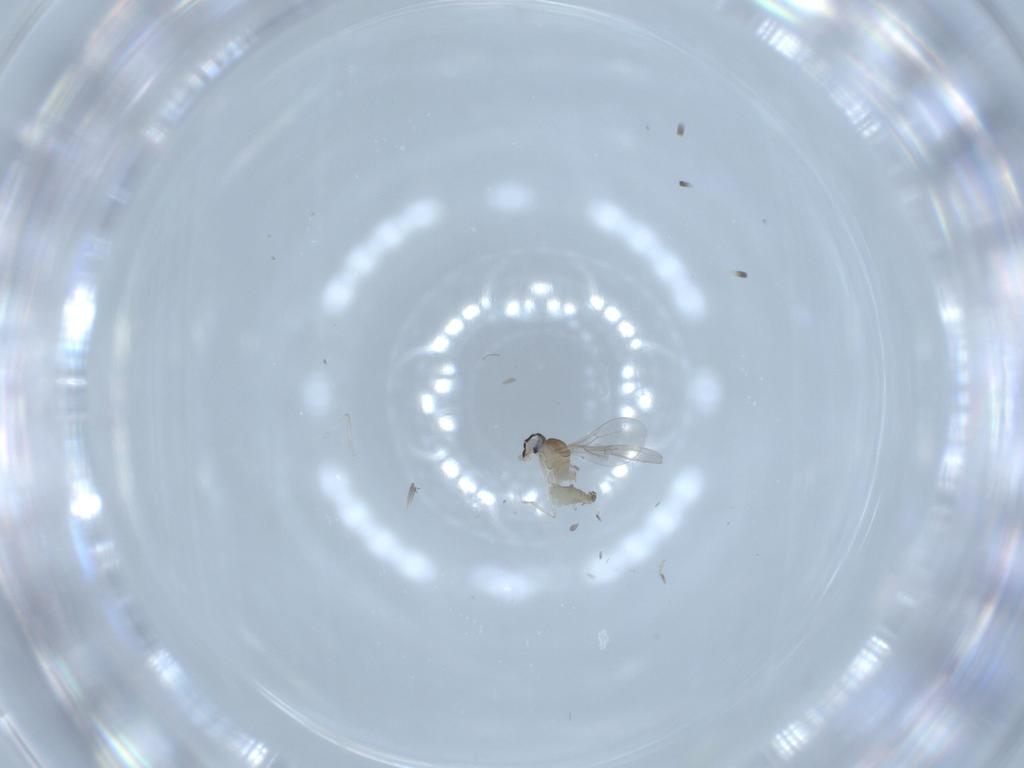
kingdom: Animalia
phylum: Arthropoda
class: Insecta
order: Diptera
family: Cecidomyiidae
